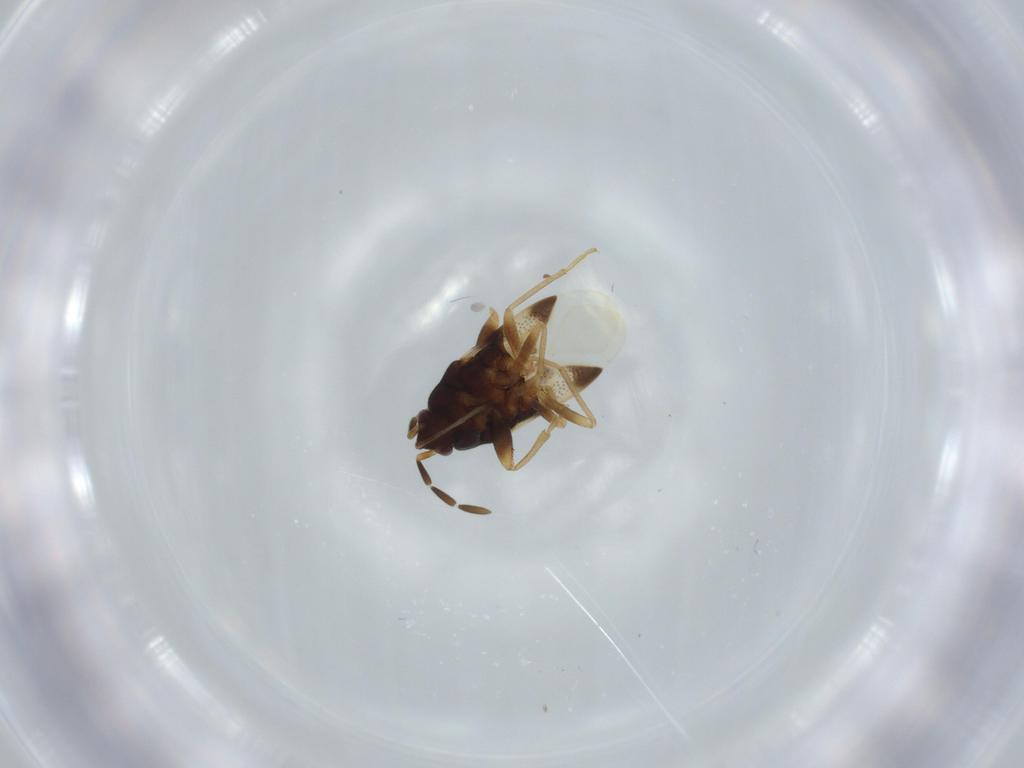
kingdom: Animalia
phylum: Arthropoda
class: Insecta
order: Hemiptera
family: Rhyparochromidae
